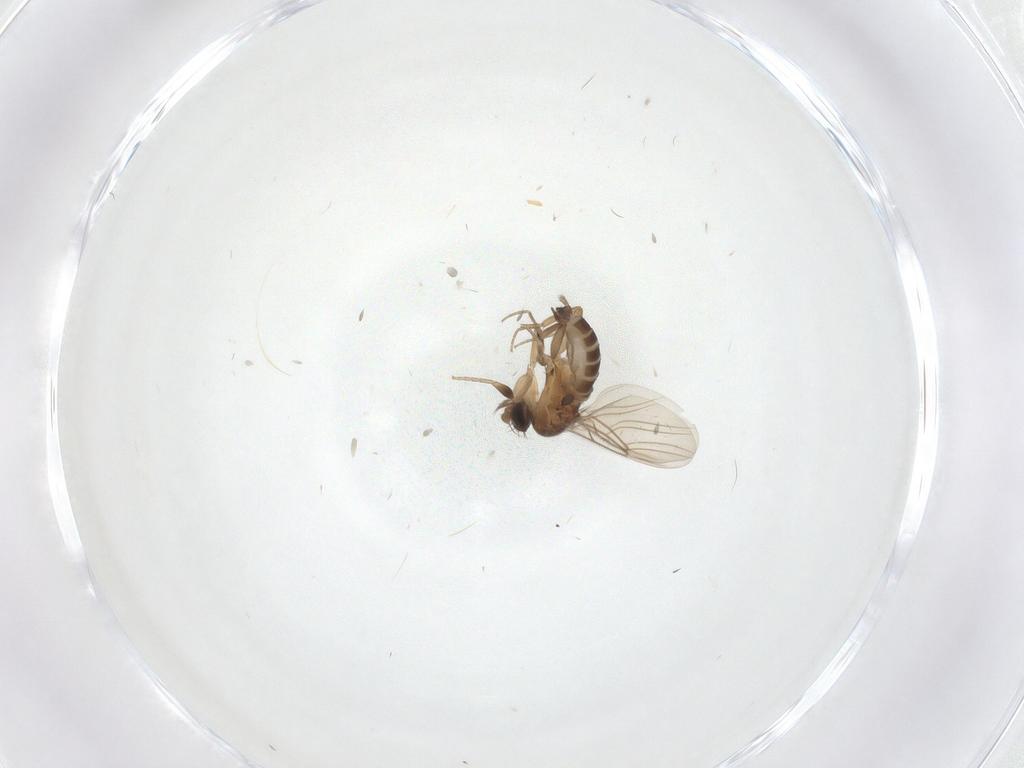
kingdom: Animalia
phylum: Arthropoda
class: Insecta
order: Diptera
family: Phoridae
